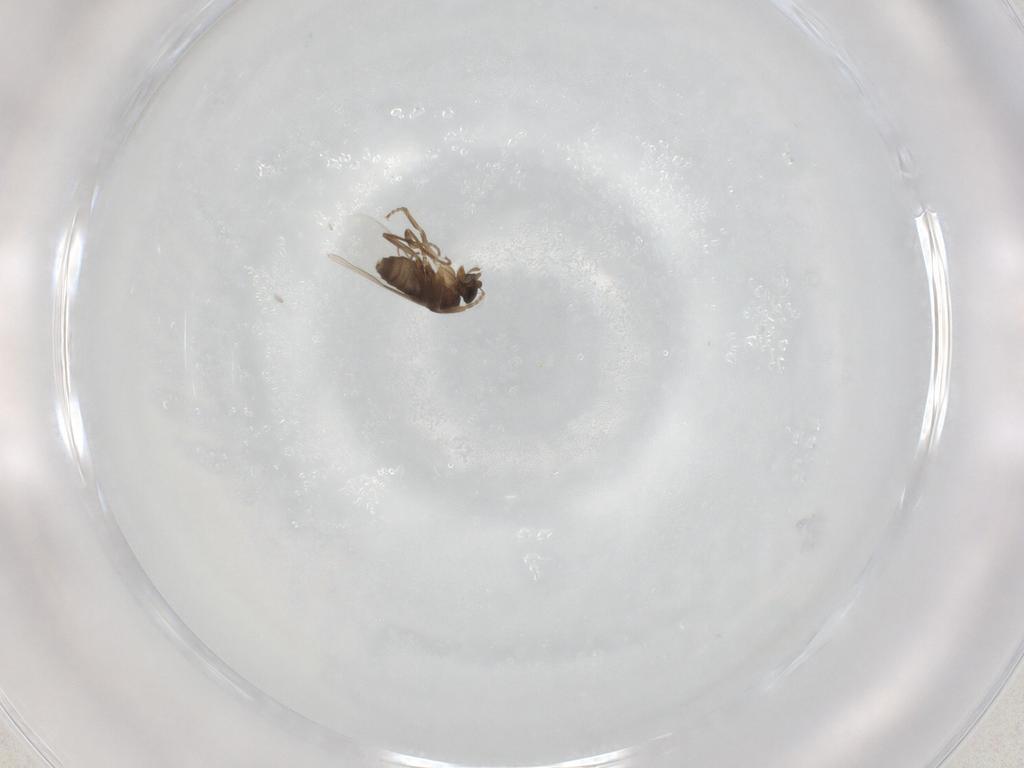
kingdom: Animalia
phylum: Arthropoda
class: Insecta
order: Diptera
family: Phoridae
